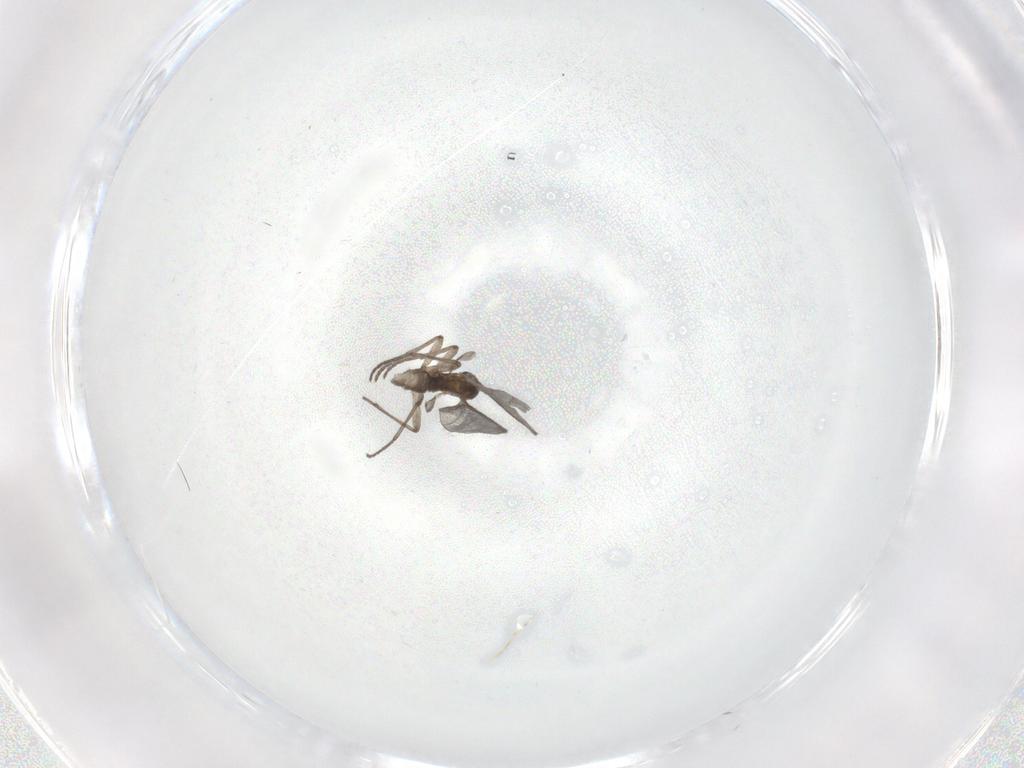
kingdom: Animalia
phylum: Arthropoda
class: Insecta
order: Diptera
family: Sciaridae
